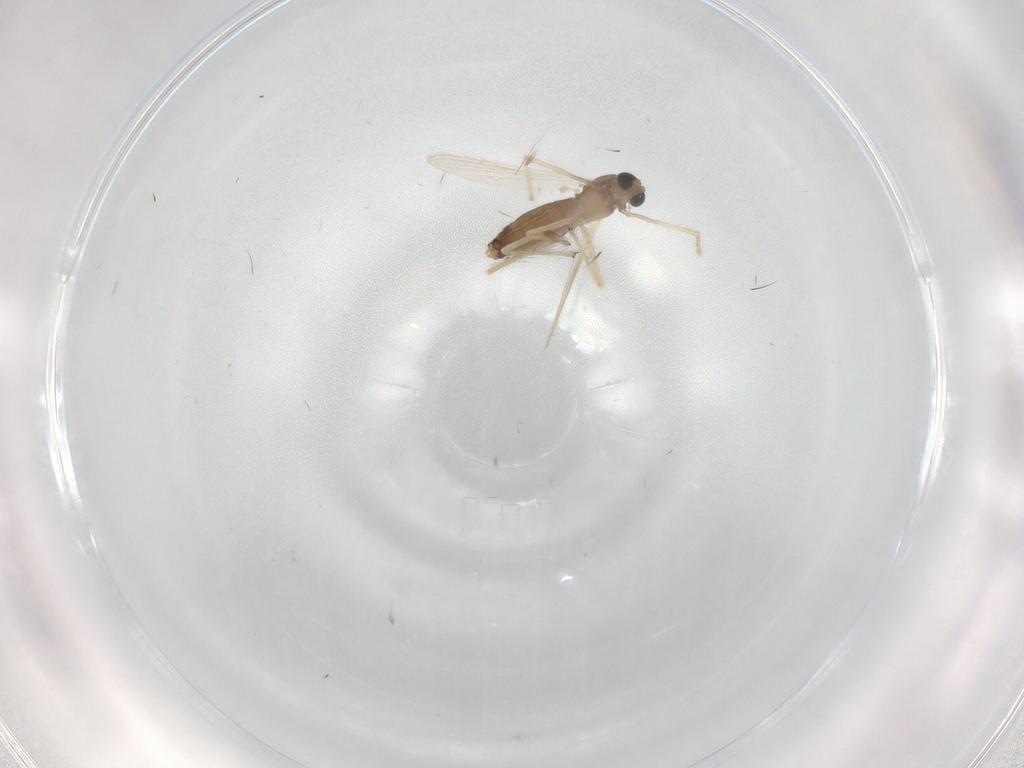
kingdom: Animalia
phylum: Arthropoda
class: Insecta
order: Diptera
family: Chironomidae
